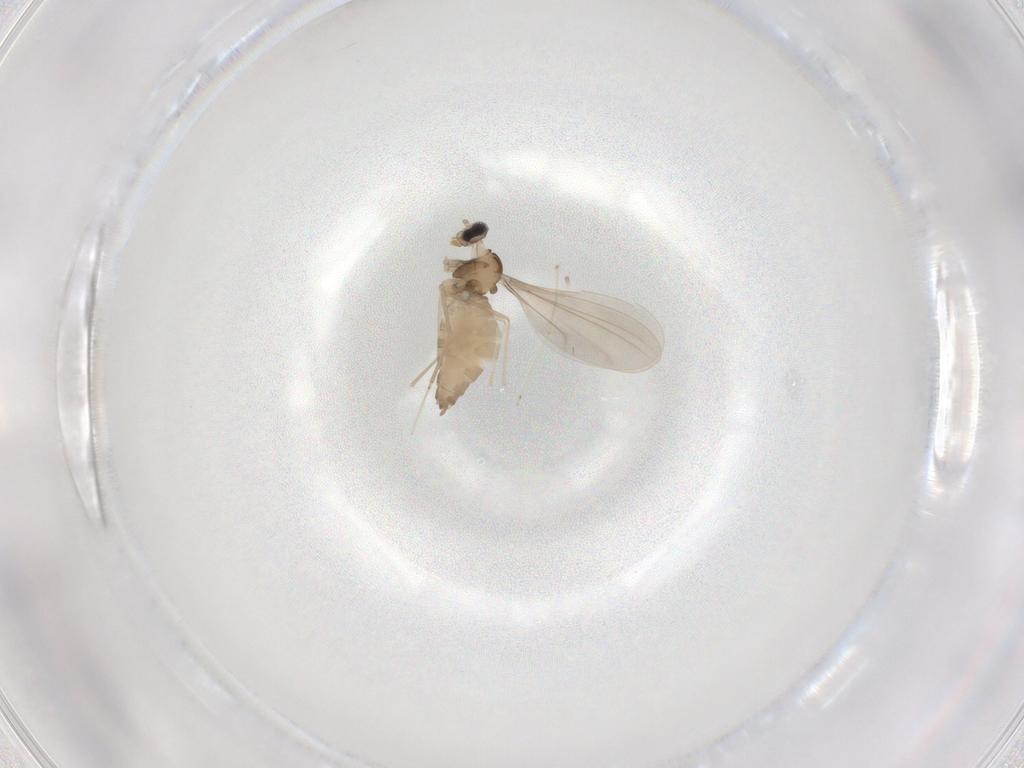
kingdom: Animalia
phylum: Arthropoda
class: Insecta
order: Diptera
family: Cecidomyiidae
